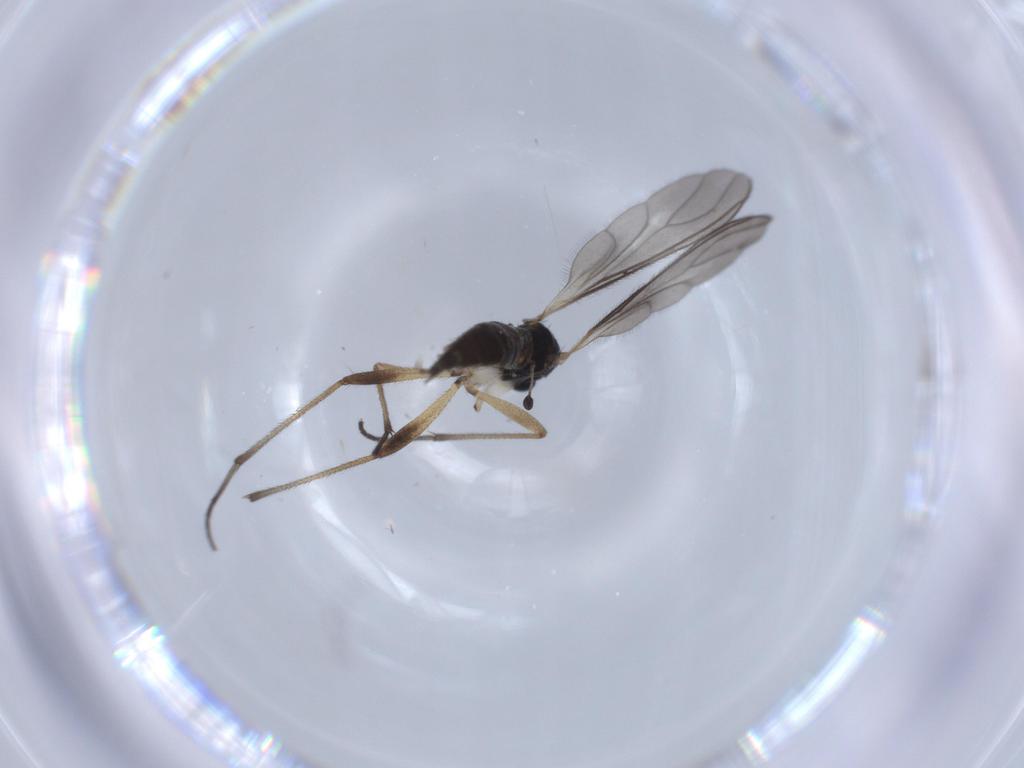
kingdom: Animalia
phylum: Arthropoda
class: Insecta
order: Diptera
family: Sciaridae
